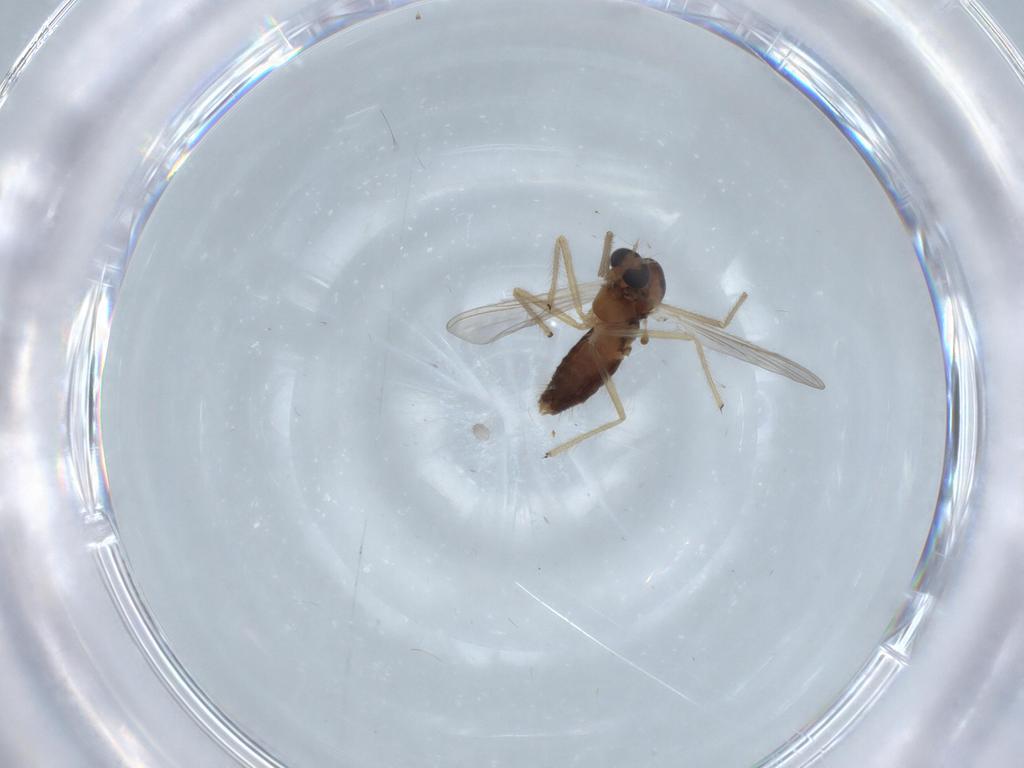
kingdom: Animalia
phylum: Arthropoda
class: Insecta
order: Diptera
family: Chironomidae
